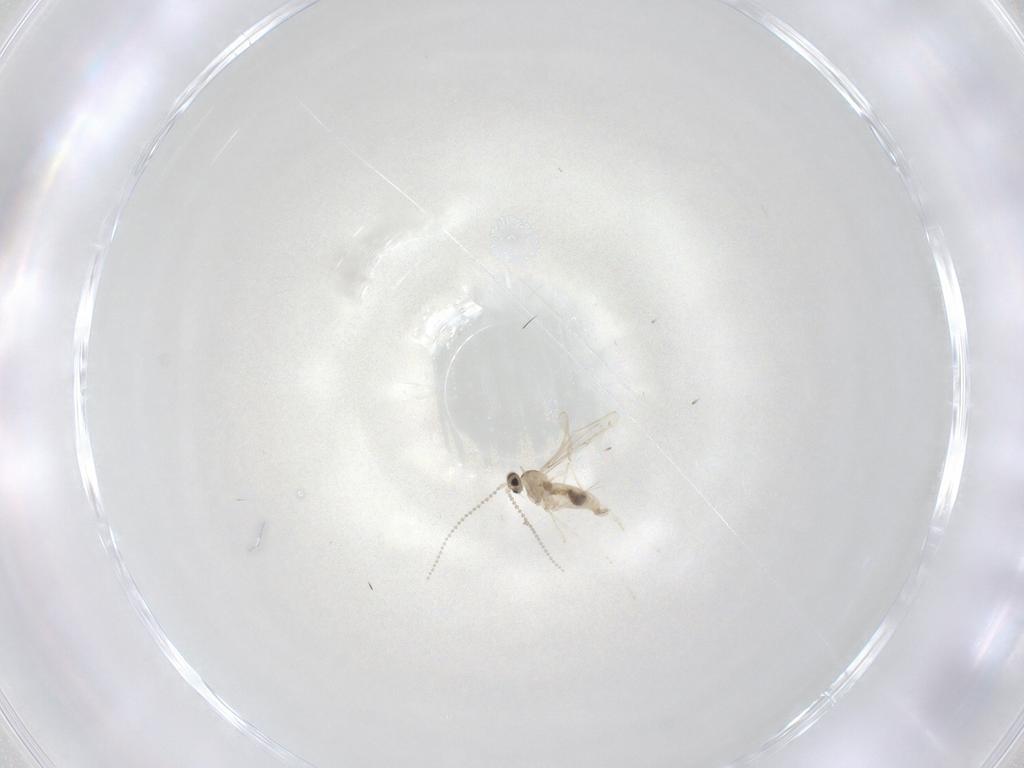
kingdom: Animalia
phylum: Arthropoda
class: Insecta
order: Diptera
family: Cecidomyiidae
